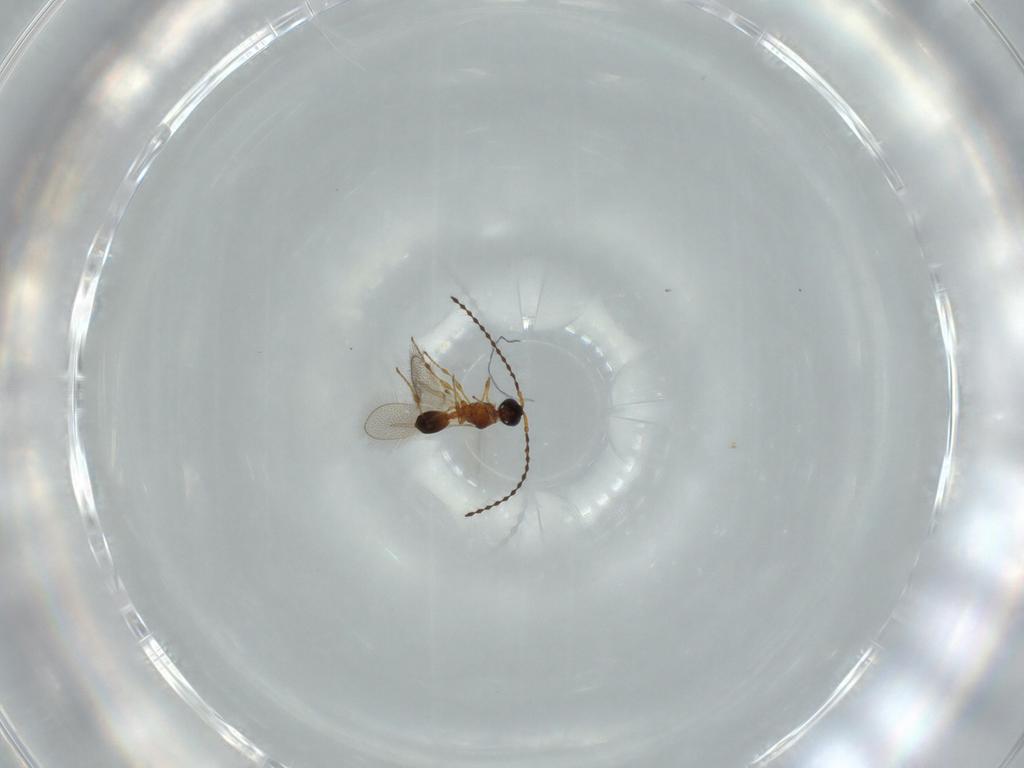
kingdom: Animalia
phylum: Arthropoda
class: Insecta
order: Hymenoptera
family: Diapriidae
